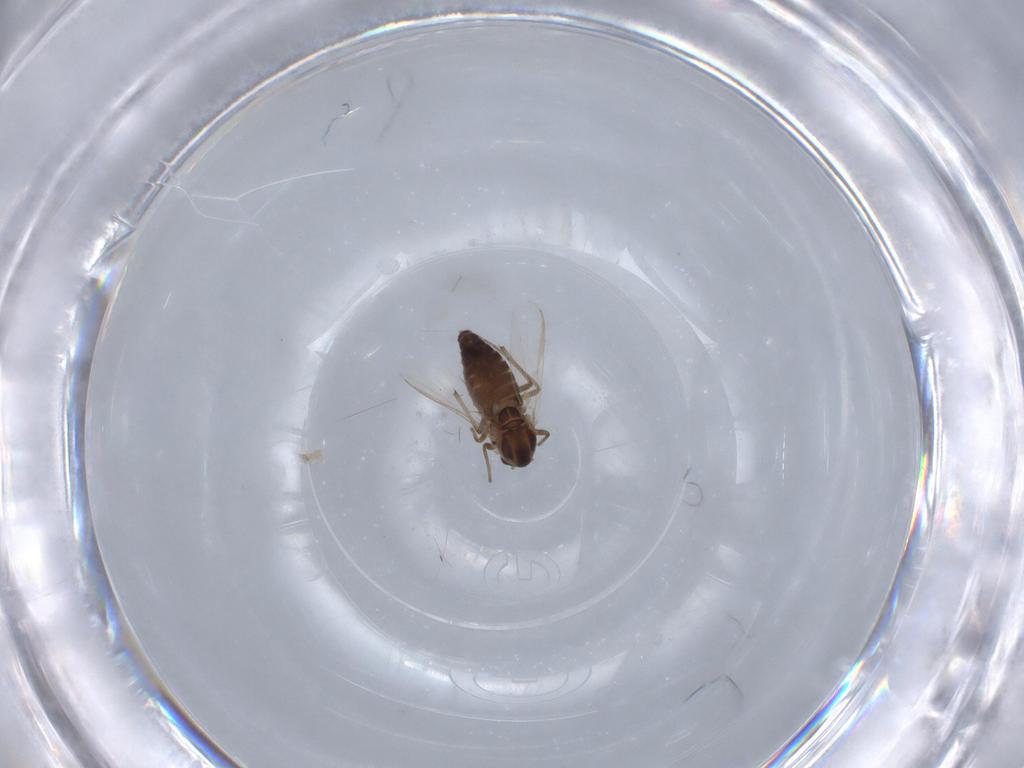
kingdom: Animalia
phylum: Arthropoda
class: Insecta
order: Diptera
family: Chironomidae
